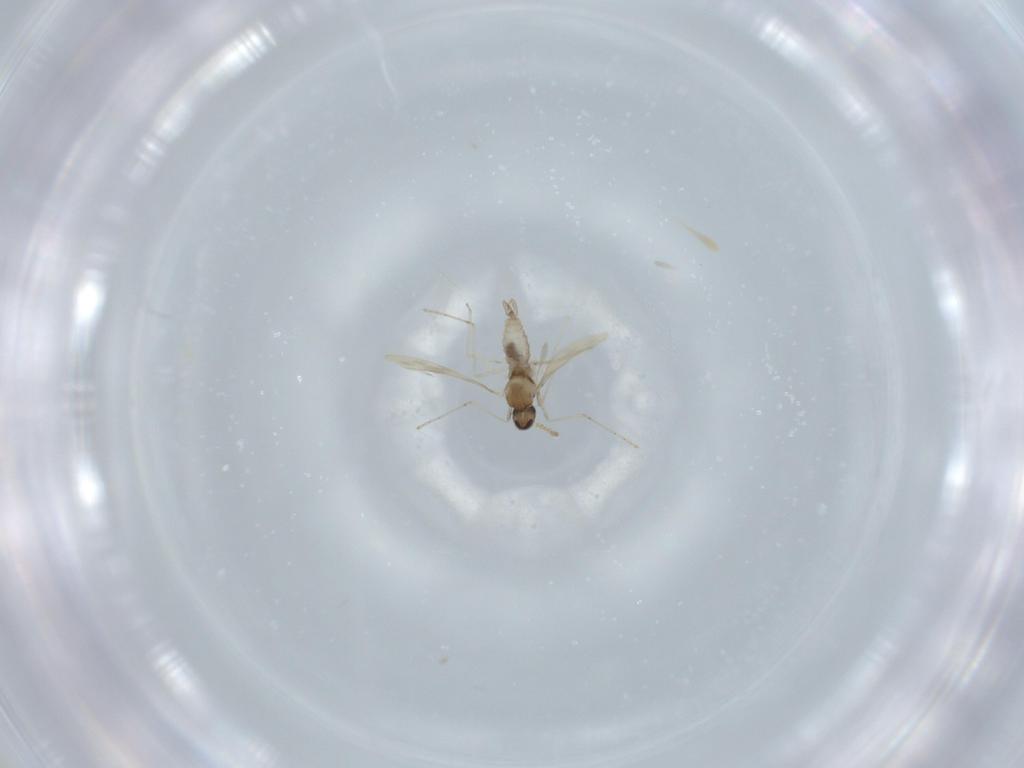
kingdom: Animalia
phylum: Arthropoda
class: Insecta
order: Diptera
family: Cecidomyiidae
